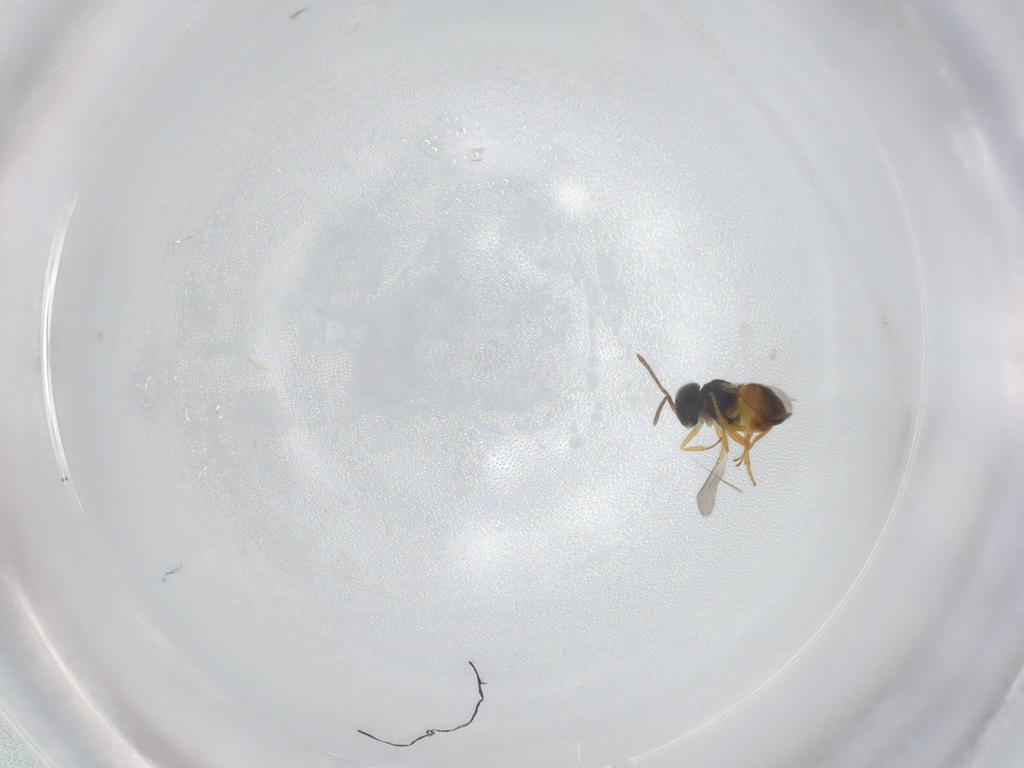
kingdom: Animalia
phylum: Arthropoda
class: Insecta
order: Hymenoptera
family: Encyrtidae
